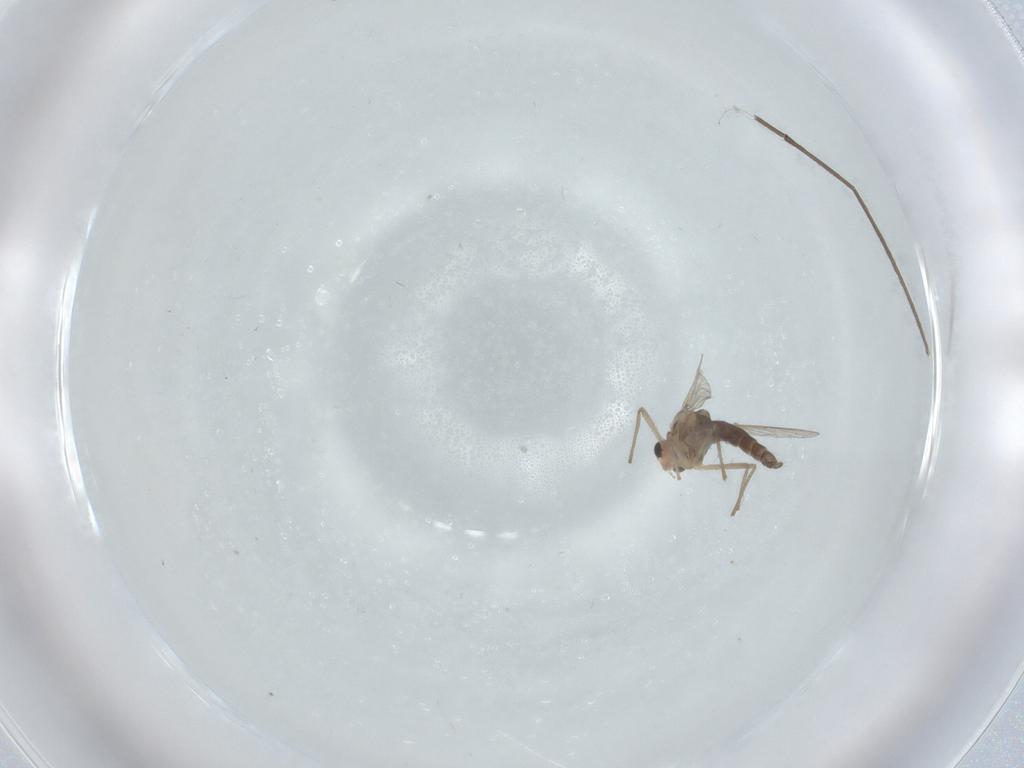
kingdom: Animalia
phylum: Arthropoda
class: Insecta
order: Diptera
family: Chironomidae
